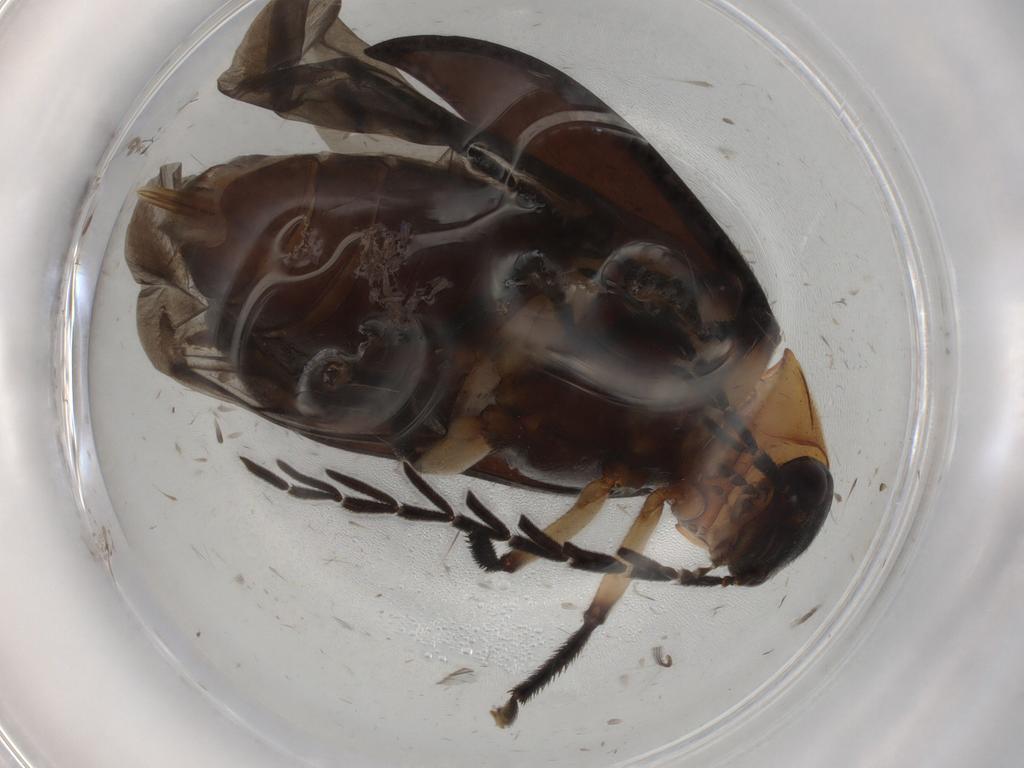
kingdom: Animalia
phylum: Arthropoda
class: Insecta
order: Coleoptera
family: Ptilodactylidae
